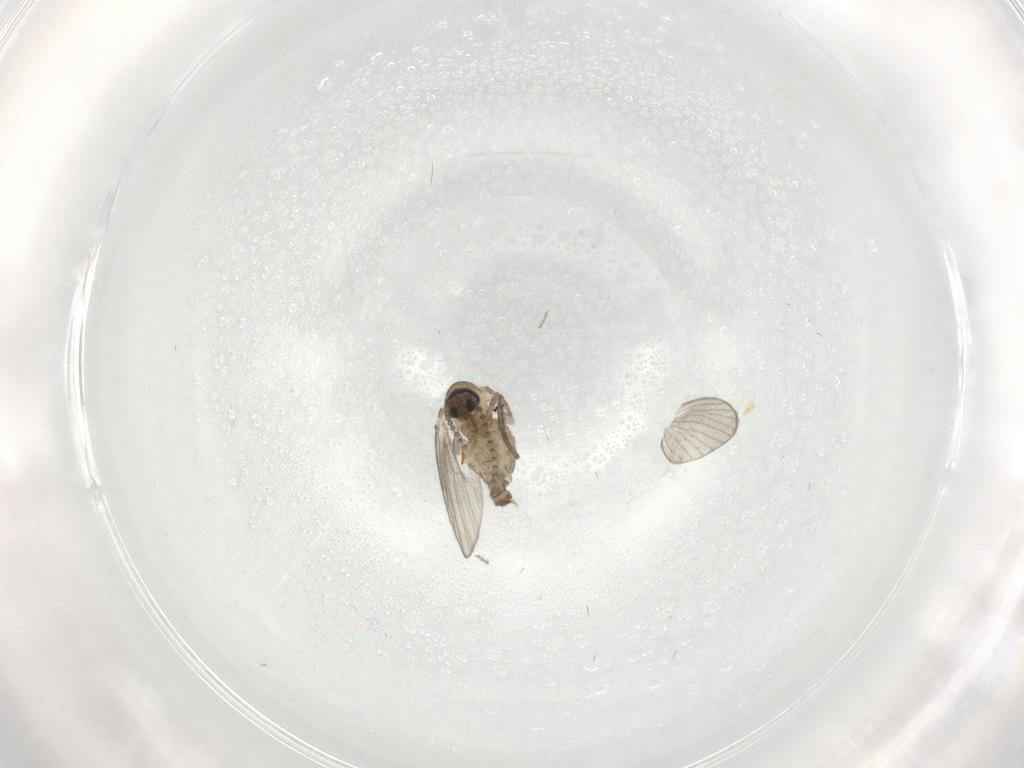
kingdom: Animalia
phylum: Arthropoda
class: Insecta
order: Diptera
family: Psychodidae
